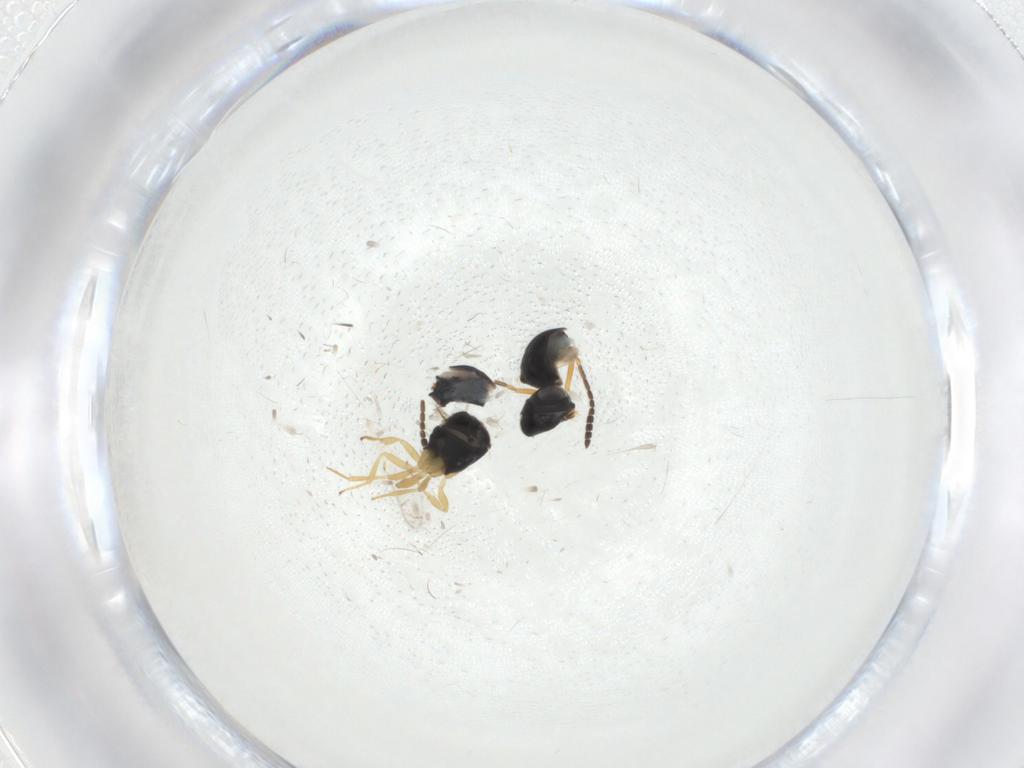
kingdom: Animalia
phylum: Arthropoda
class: Insecta
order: Hymenoptera
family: Scelionidae
